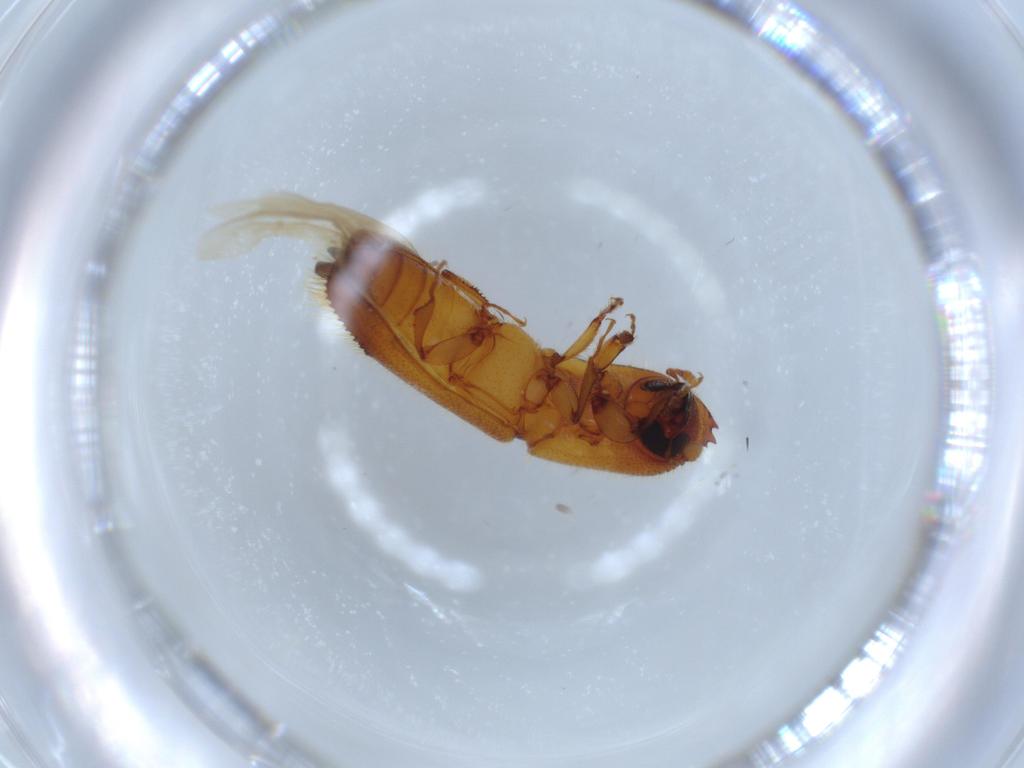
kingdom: Animalia
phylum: Arthropoda
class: Insecta
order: Coleoptera
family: Curculionidae
